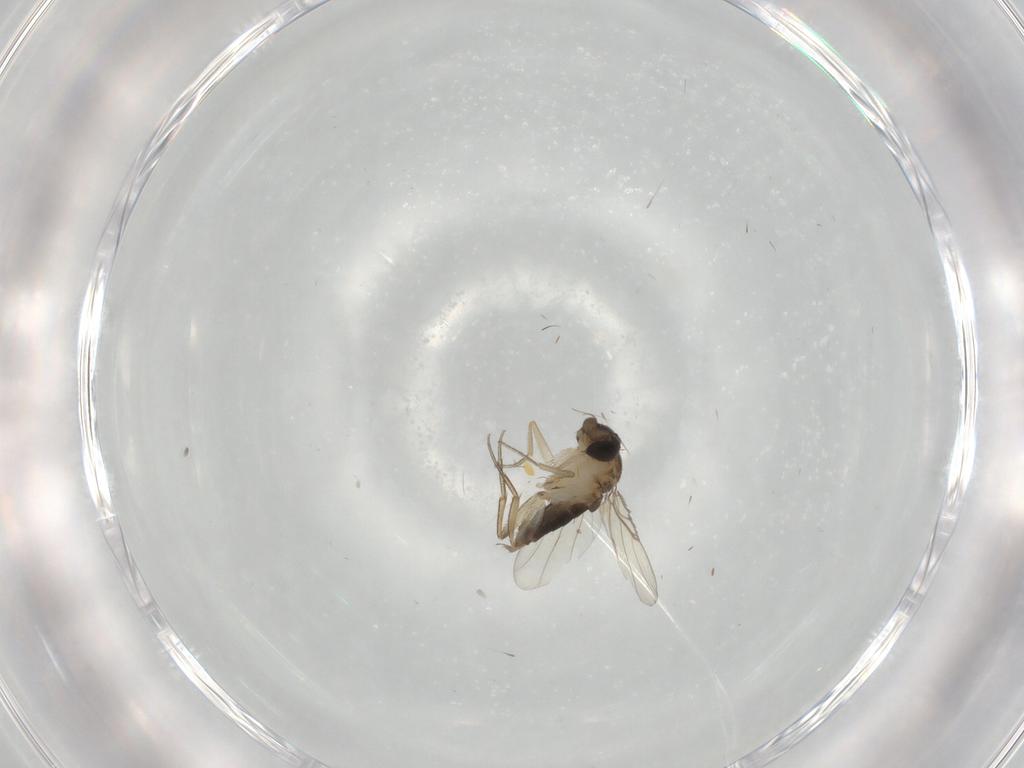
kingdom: Animalia
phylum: Arthropoda
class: Insecta
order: Diptera
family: Phoridae
